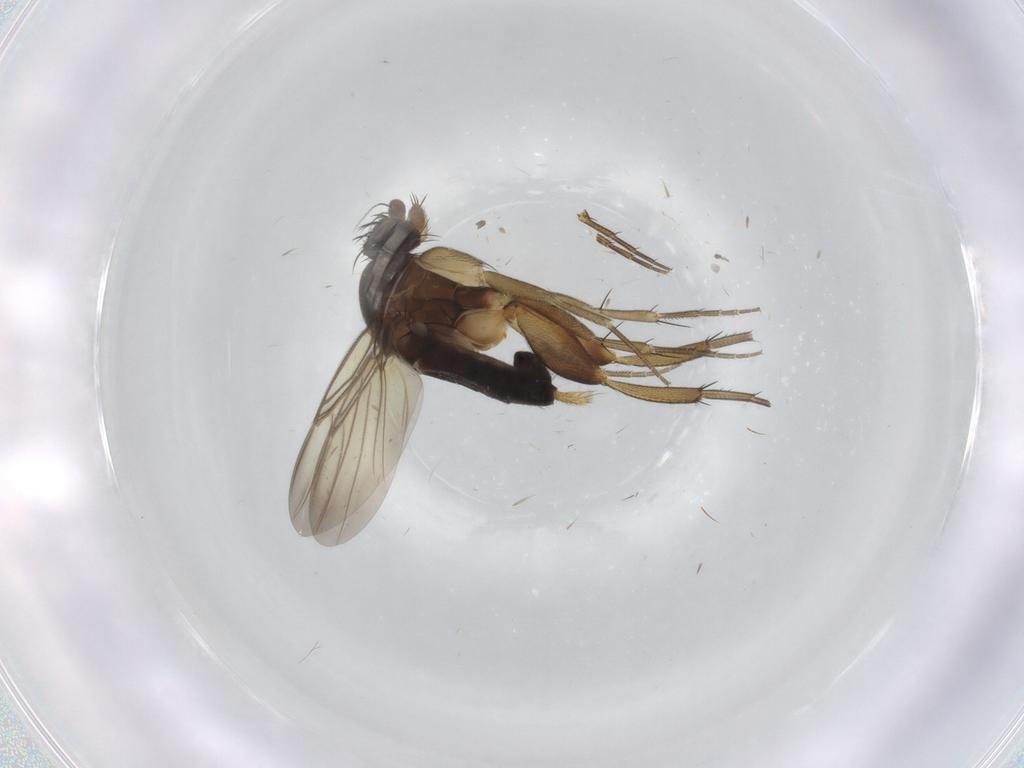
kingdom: Animalia
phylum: Arthropoda
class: Insecta
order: Diptera
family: Phoridae
